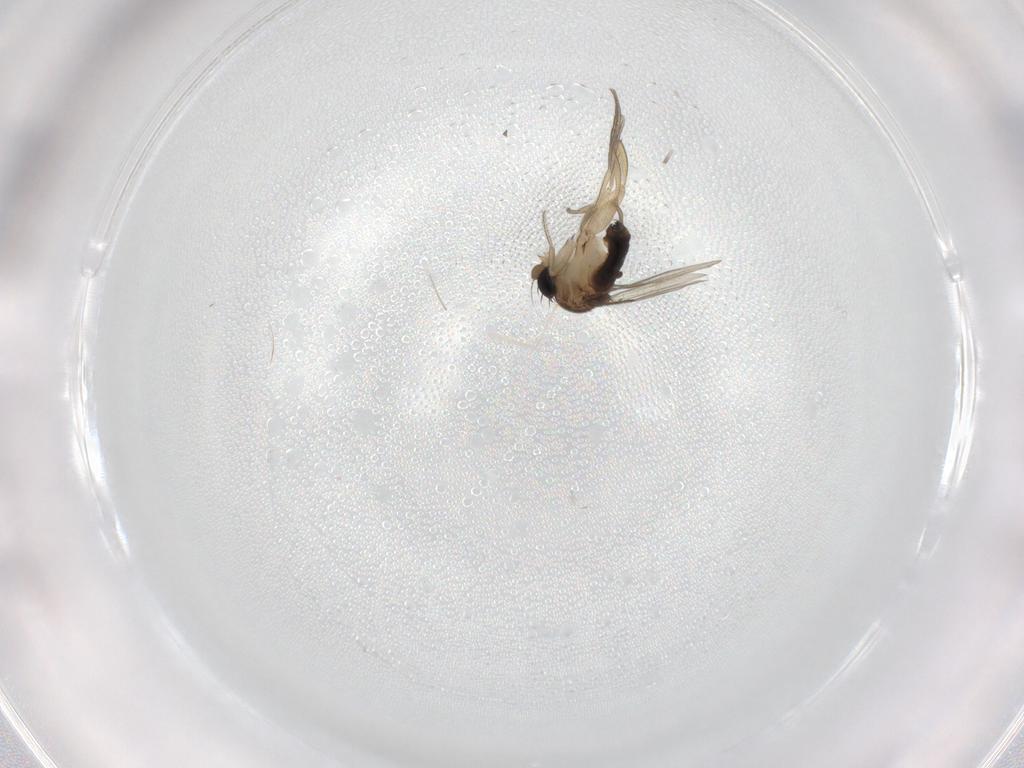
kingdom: Animalia
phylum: Arthropoda
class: Insecta
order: Diptera
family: Cecidomyiidae
